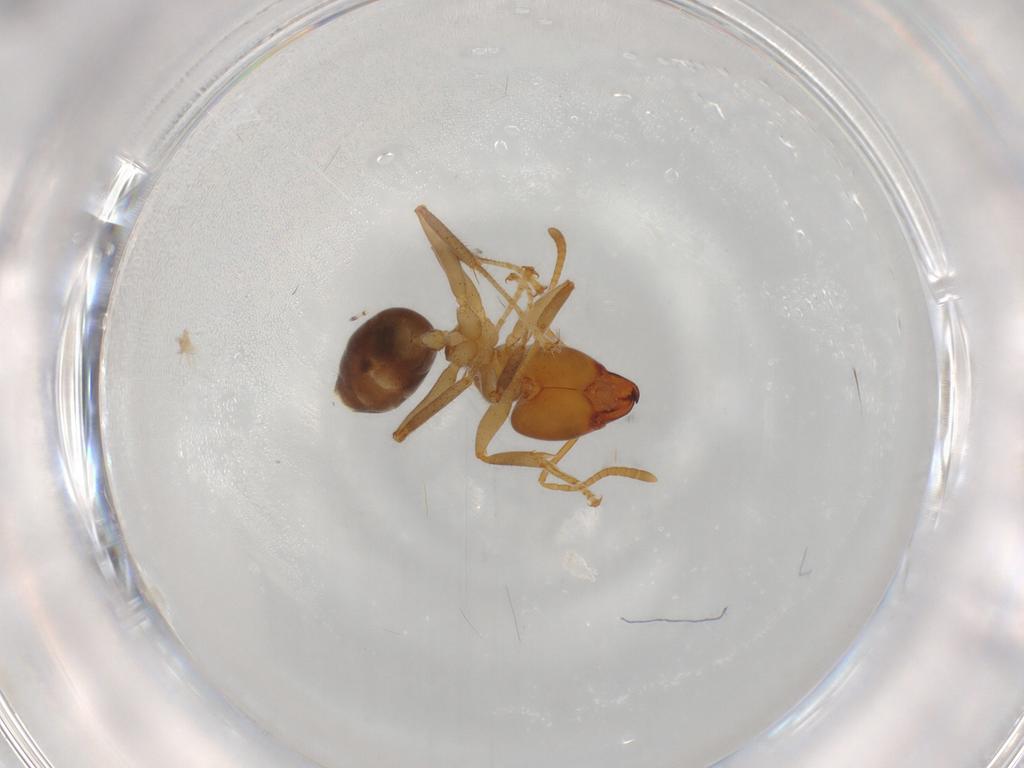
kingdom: Animalia
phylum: Arthropoda
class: Insecta
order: Hymenoptera
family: Formicidae
